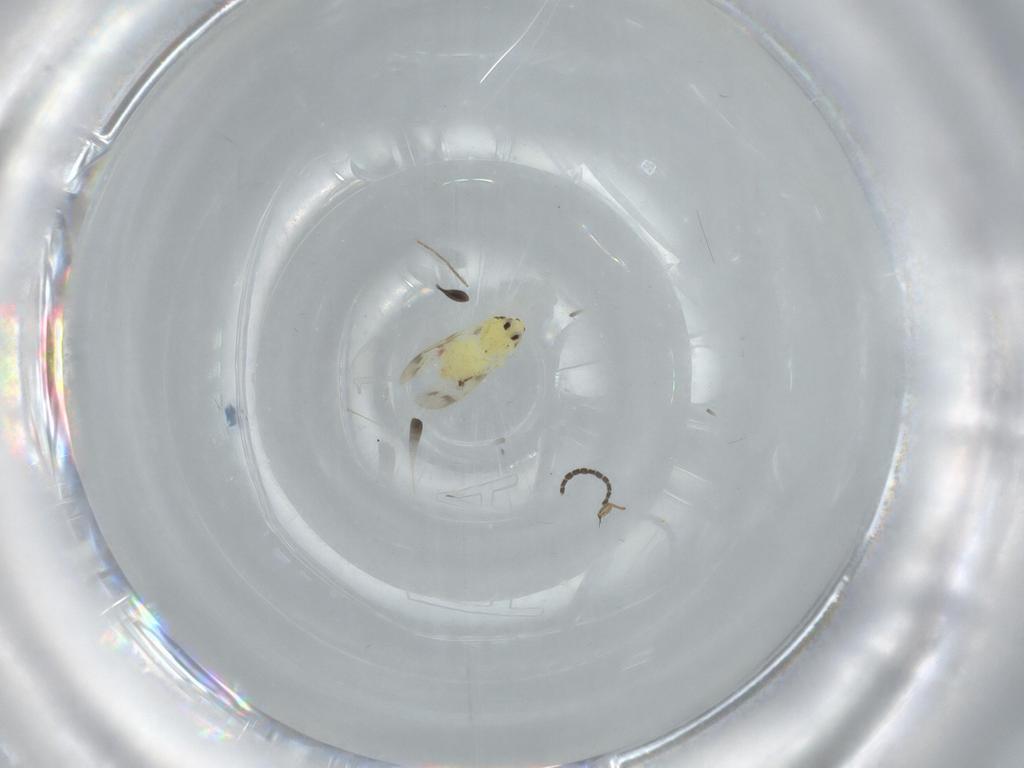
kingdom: Animalia
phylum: Arthropoda
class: Insecta
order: Hemiptera
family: Aleyrodidae
